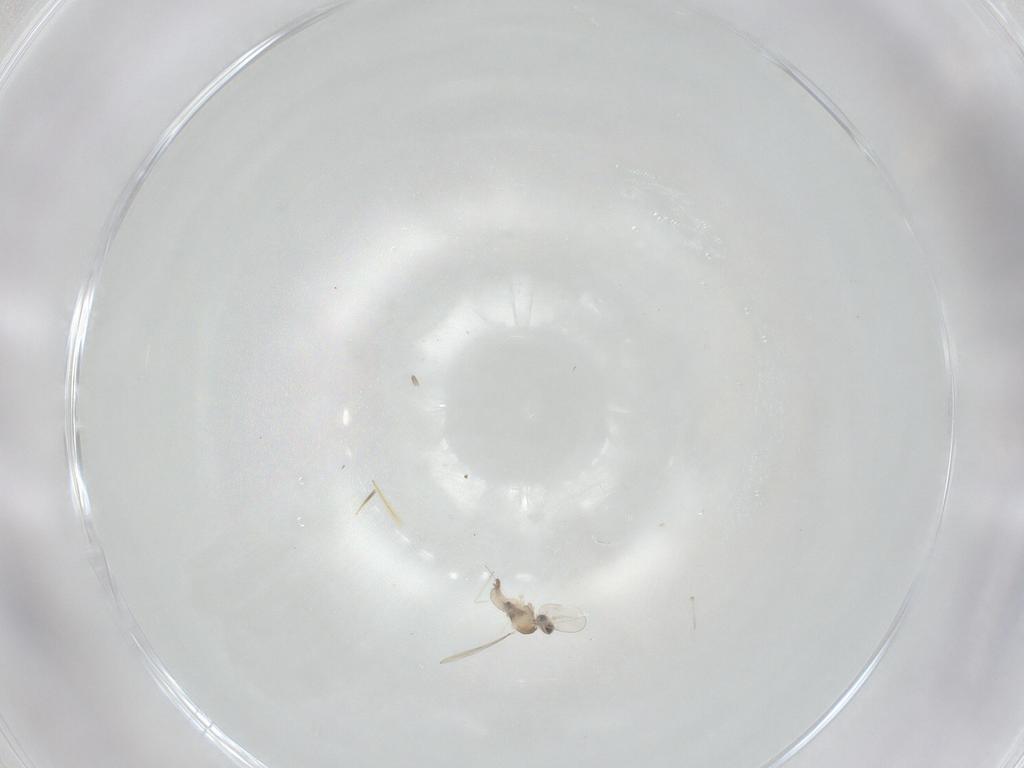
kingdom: Animalia
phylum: Arthropoda
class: Insecta
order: Diptera
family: Cecidomyiidae
